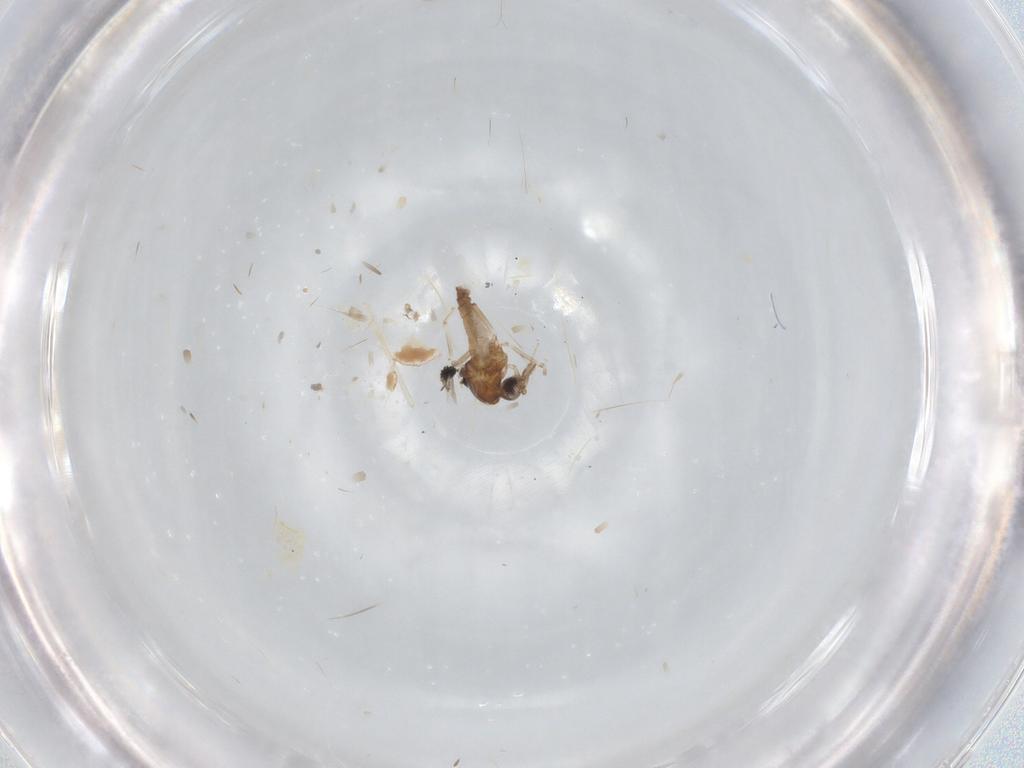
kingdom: Animalia
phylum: Arthropoda
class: Insecta
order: Diptera
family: Cecidomyiidae
